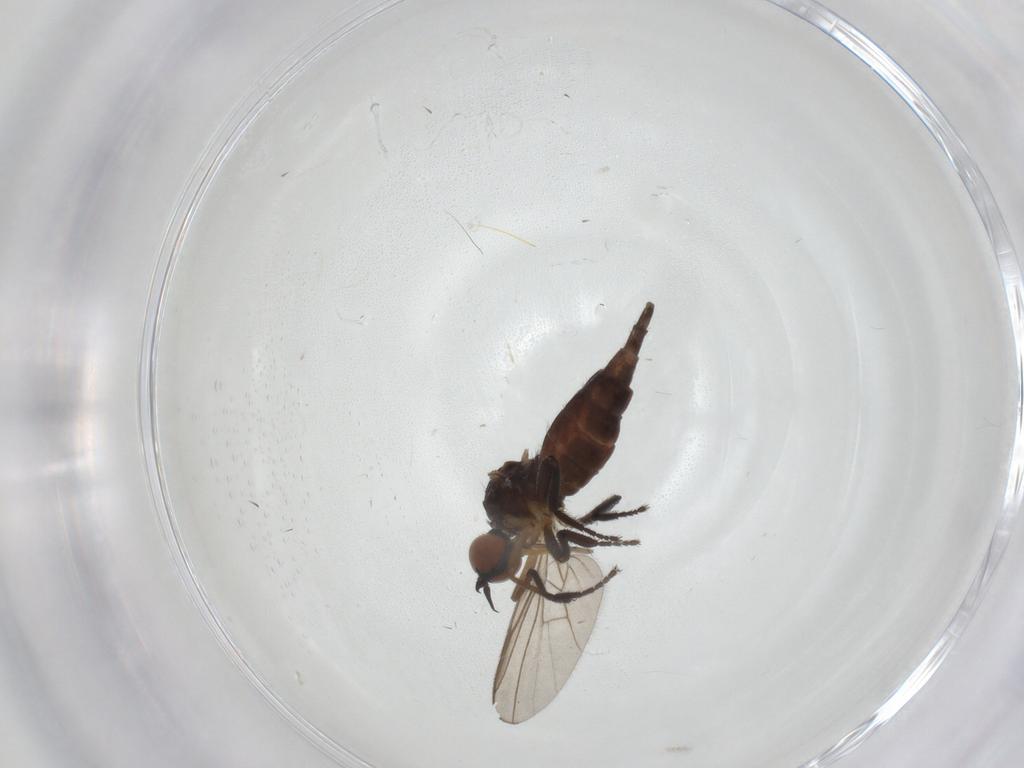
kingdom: Animalia
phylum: Arthropoda
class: Insecta
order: Diptera
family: Empididae
